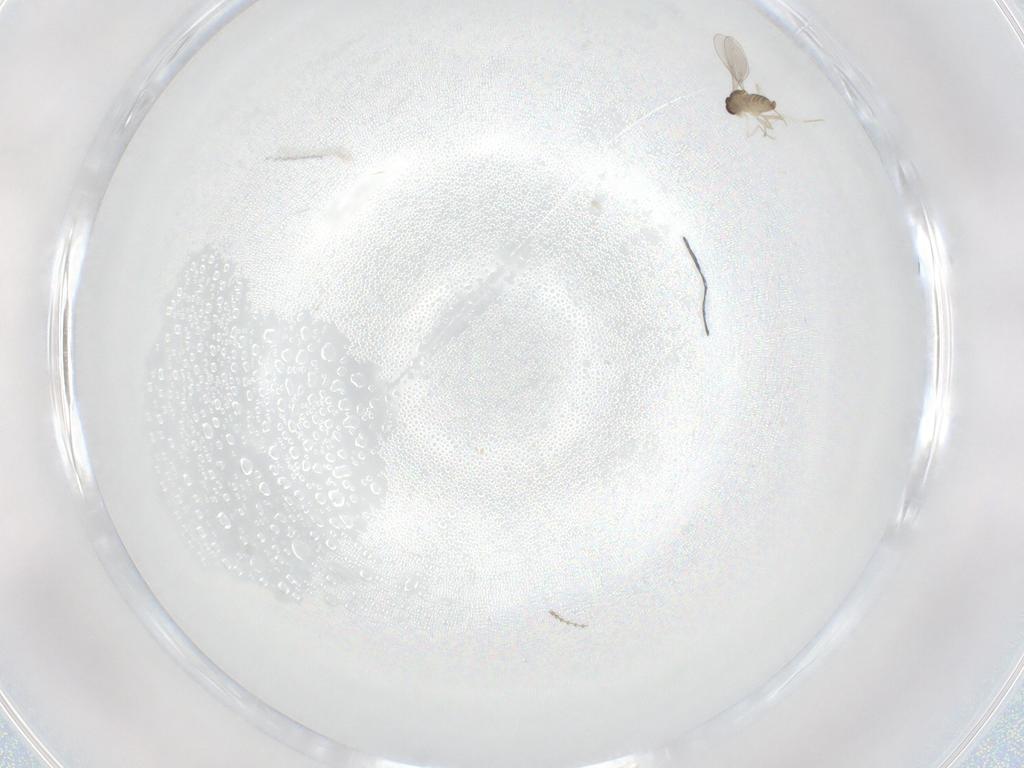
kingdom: Animalia
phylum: Arthropoda
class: Insecta
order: Diptera
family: Cecidomyiidae
